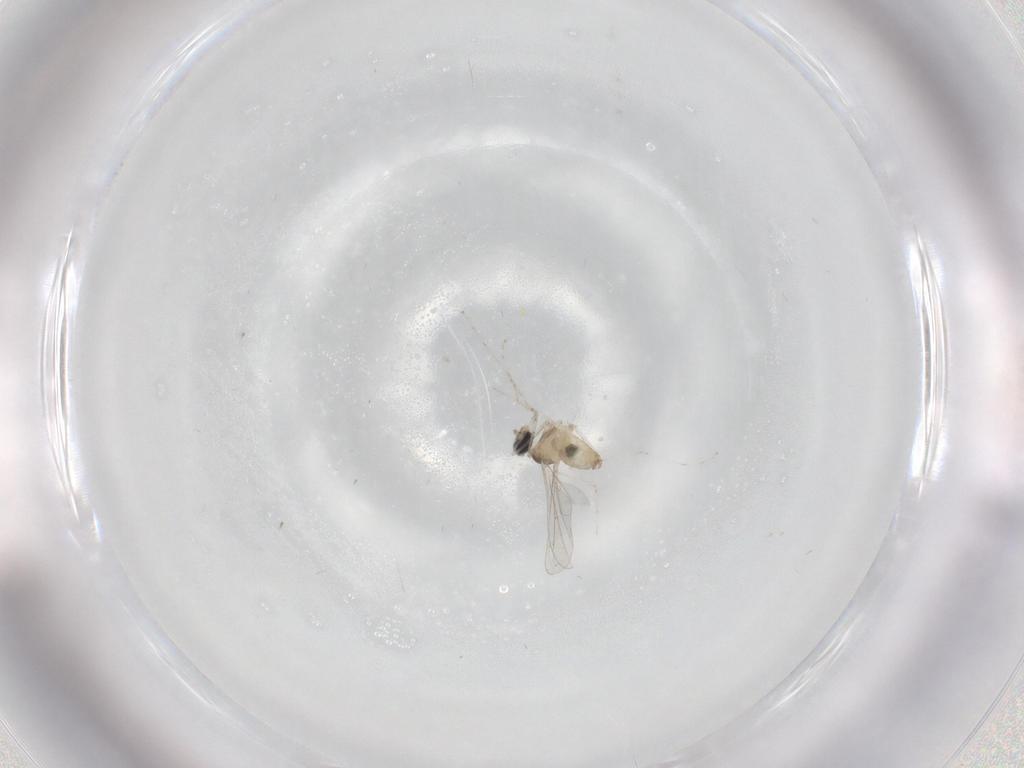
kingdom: Animalia
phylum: Arthropoda
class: Insecta
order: Diptera
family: Cecidomyiidae
